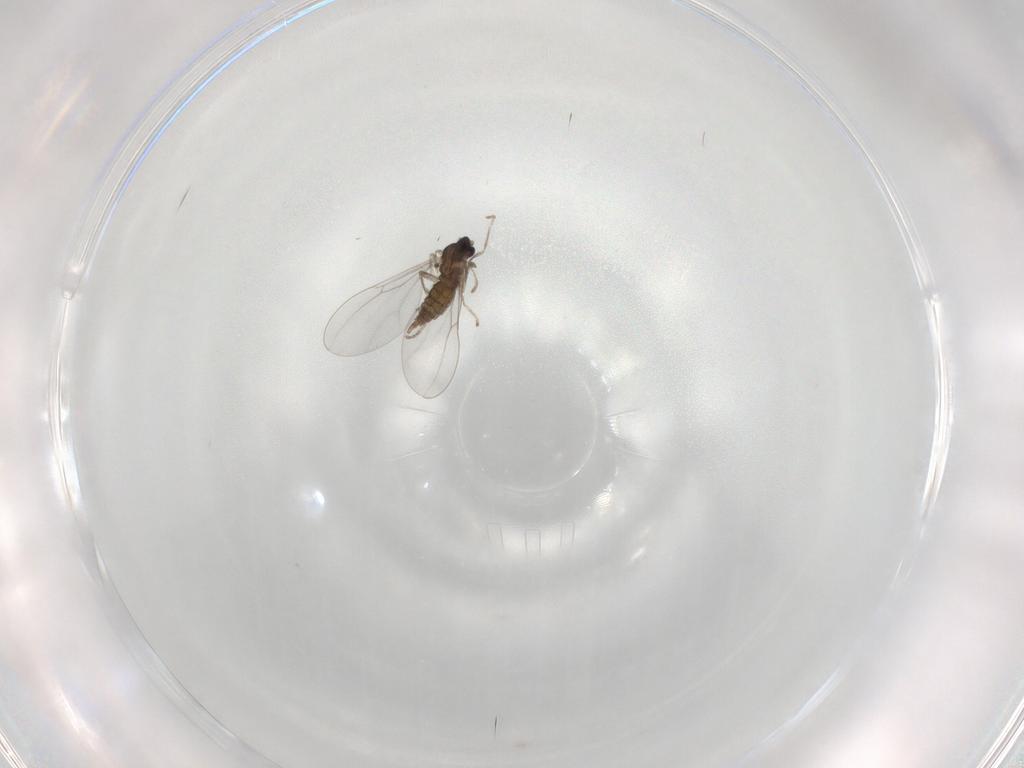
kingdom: Animalia
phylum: Arthropoda
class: Insecta
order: Diptera
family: Cecidomyiidae
